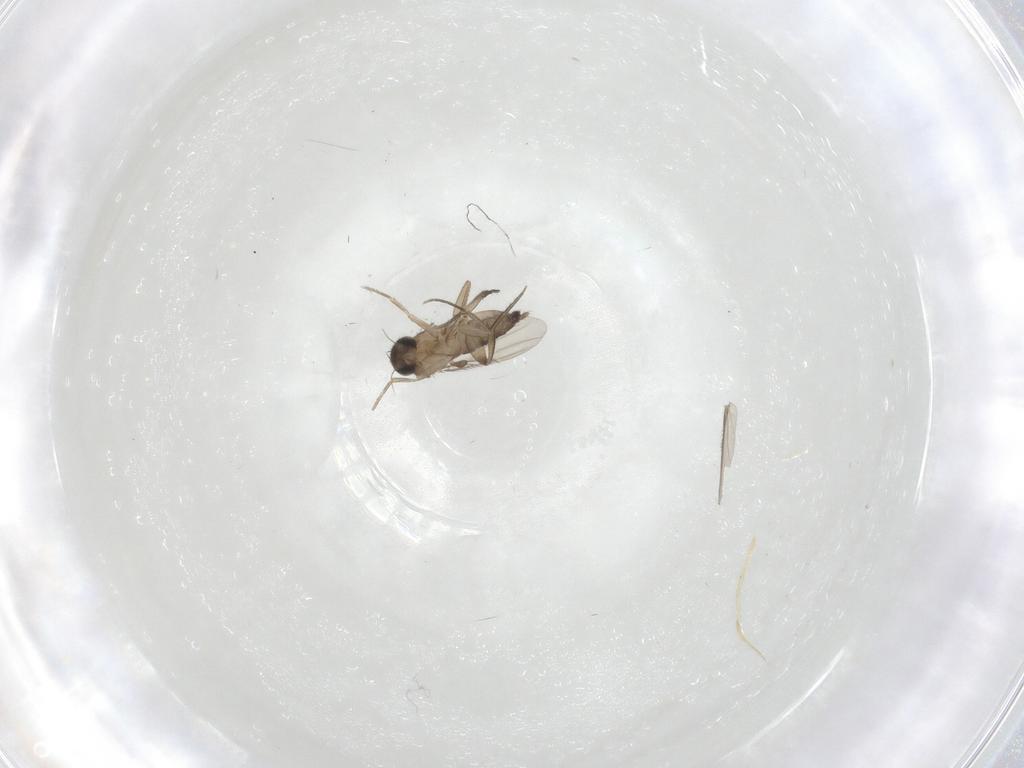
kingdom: Animalia
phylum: Arthropoda
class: Insecta
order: Diptera
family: Phoridae
